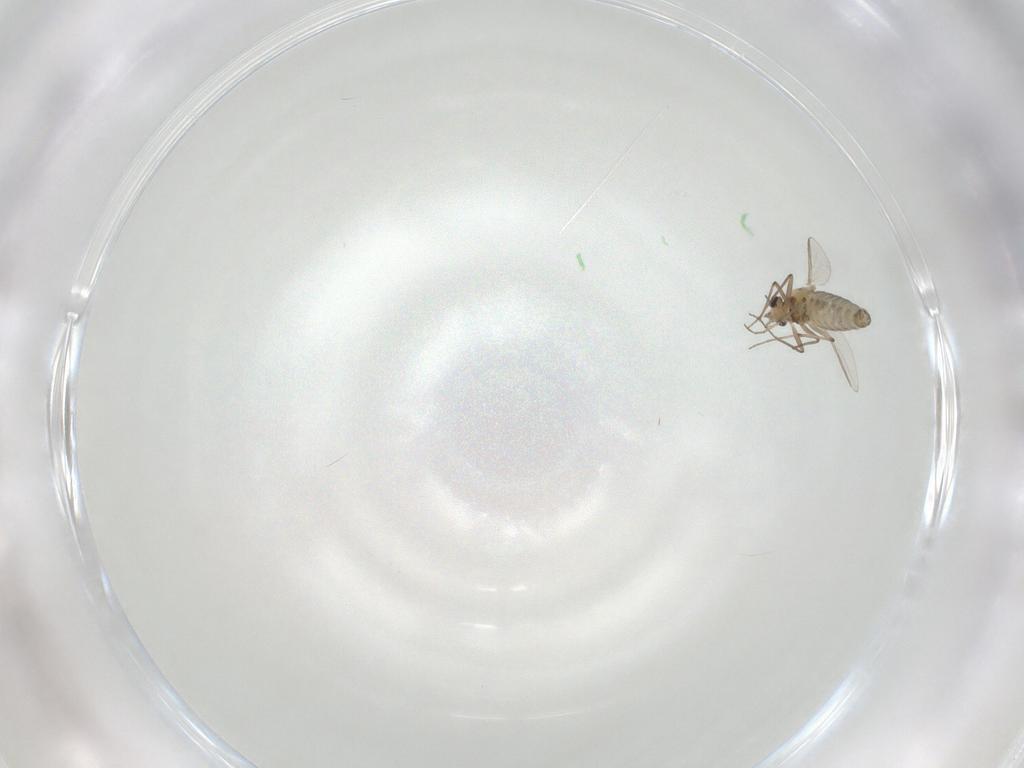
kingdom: Animalia
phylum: Arthropoda
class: Insecta
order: Diptera
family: Chironomidae
